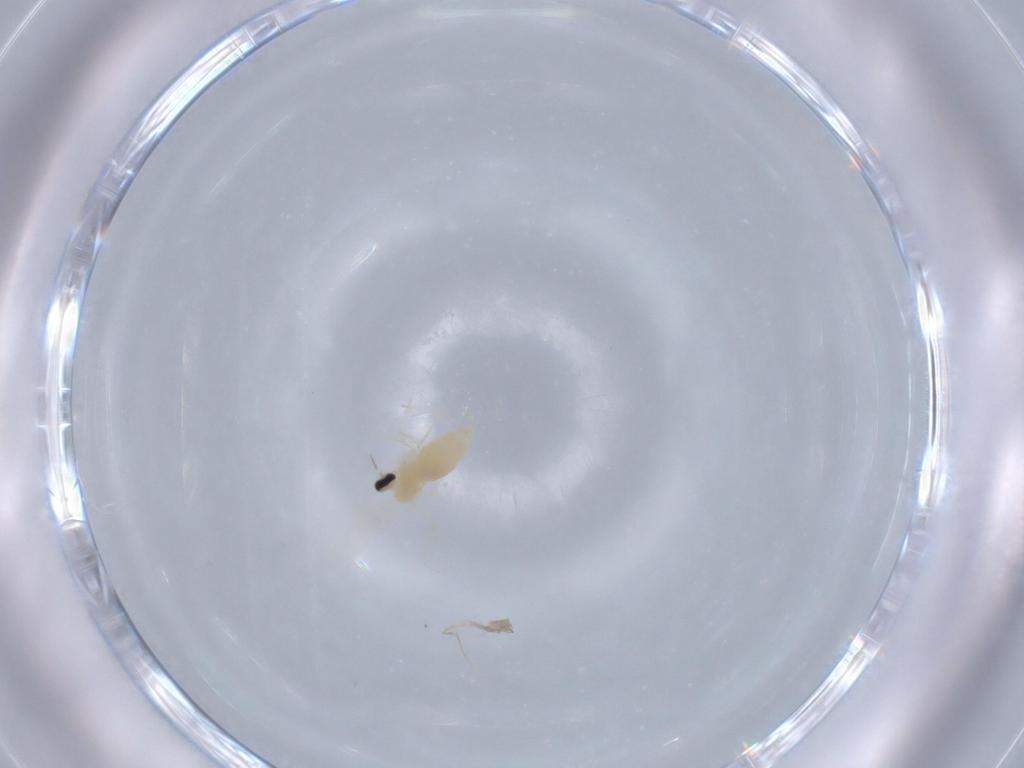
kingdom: Animalia
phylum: Arthropoda
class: Insecta
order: Diptera
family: Cecidomyiidae
